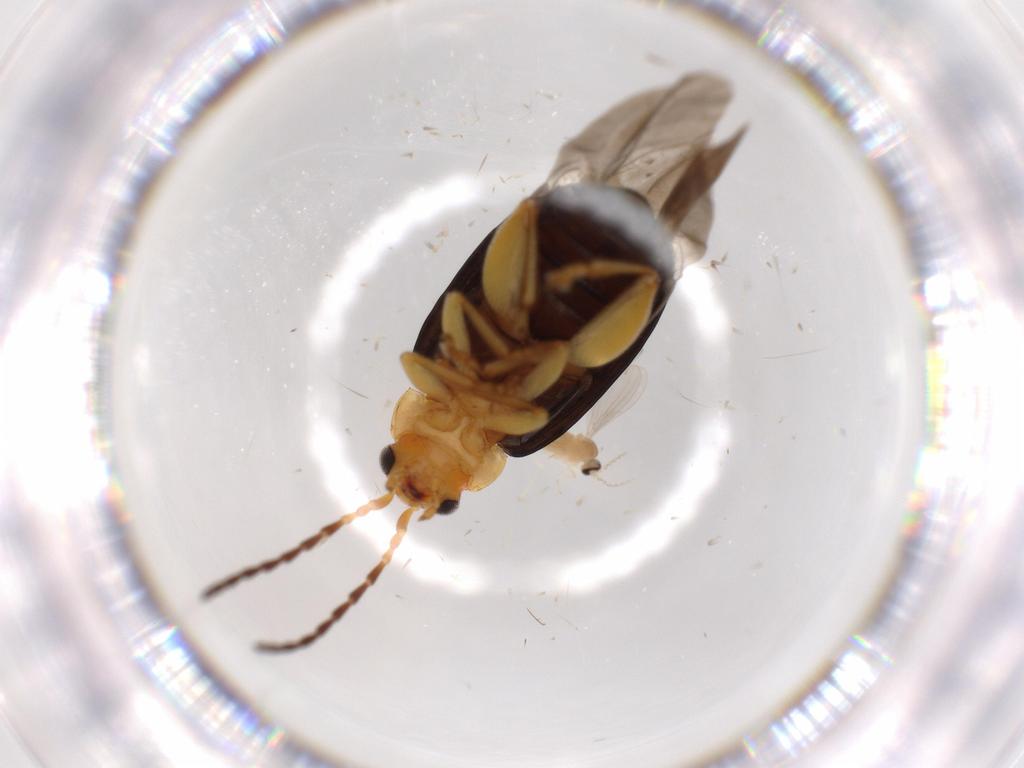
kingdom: Animalia
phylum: Arthropoda
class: Insecta
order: Coleoptera
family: Chrysomelidae
